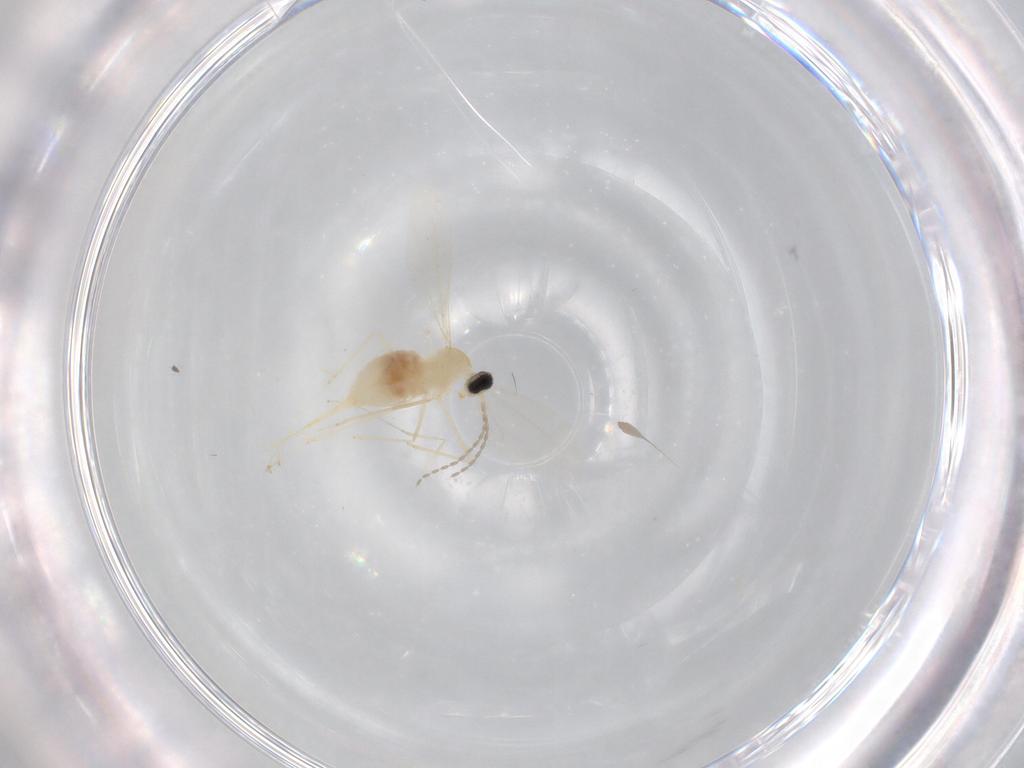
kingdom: Animalia
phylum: Arthropoda
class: Insecta
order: Diptera
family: Cecidomyiidae
